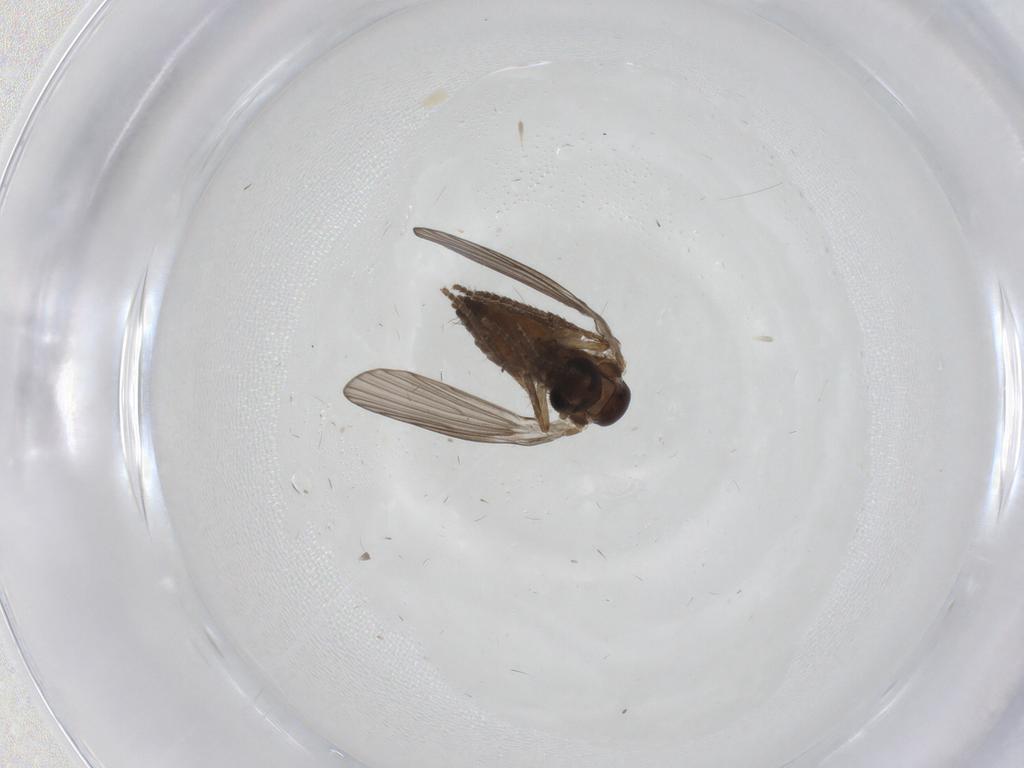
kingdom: Animalia
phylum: Arthropoda
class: Insecta
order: Diptera
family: Psychodidae
